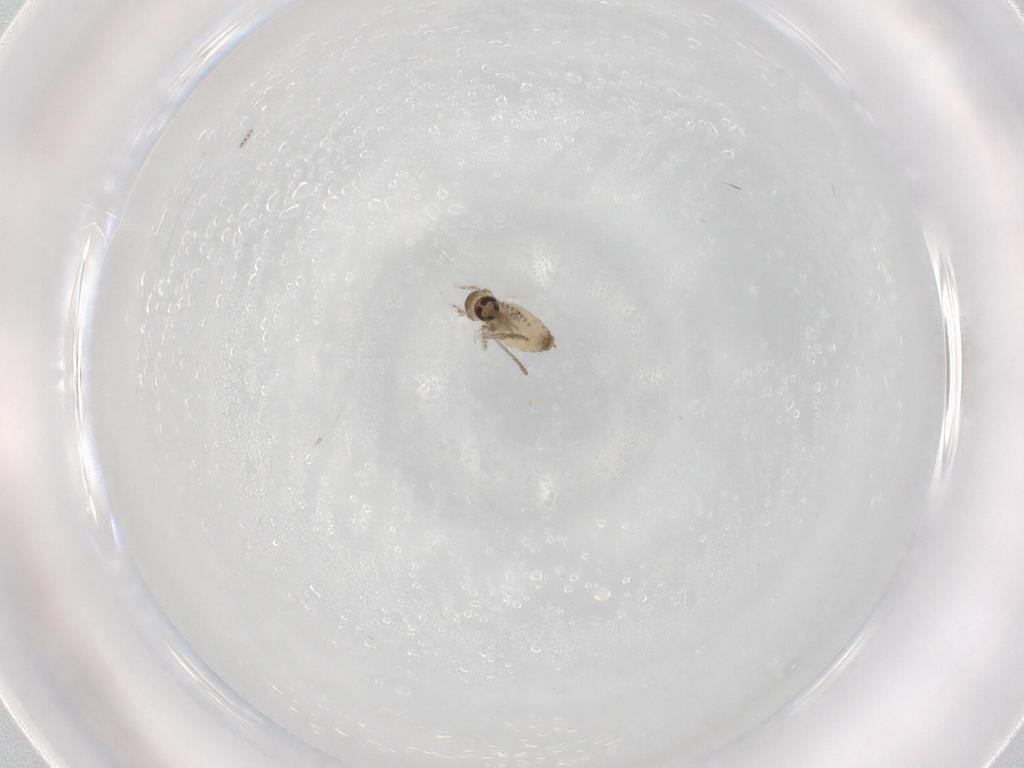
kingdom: Animalia
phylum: Arthropoda
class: Insecta
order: Diptera
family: Psychodidae
